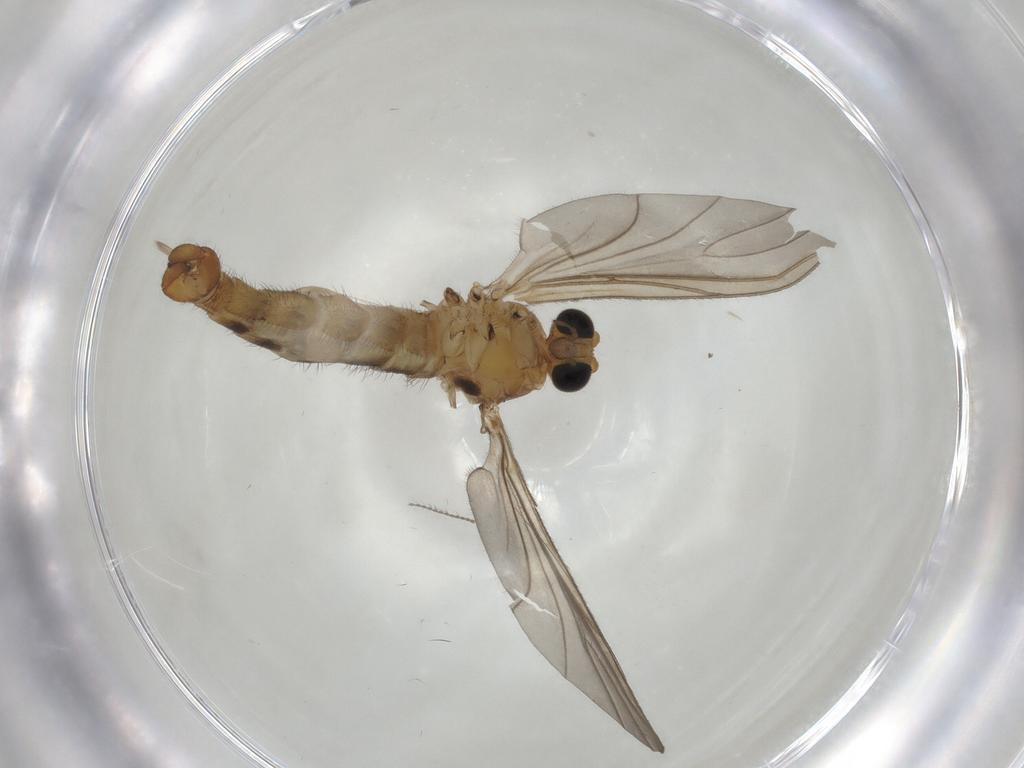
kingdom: Animalia
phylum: Arthropoda
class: Insecta
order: Diptera
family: Sciaridae
